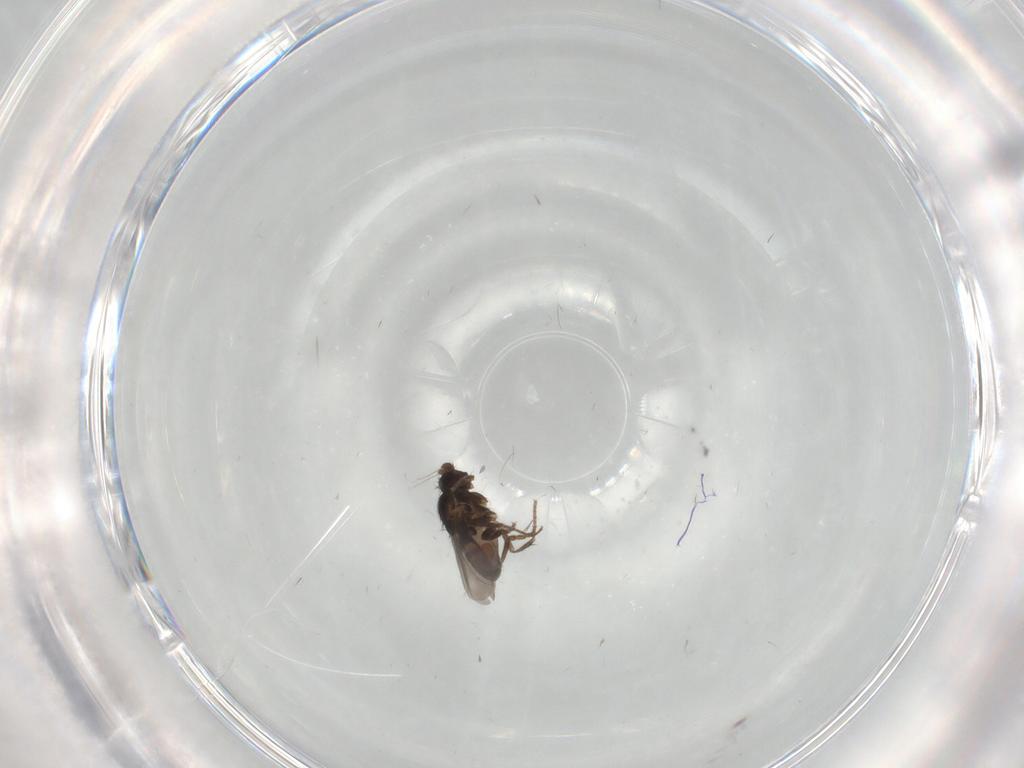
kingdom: Animalia
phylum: Arthropoda
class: Insecta
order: Diptera
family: Sphaeroceridae
